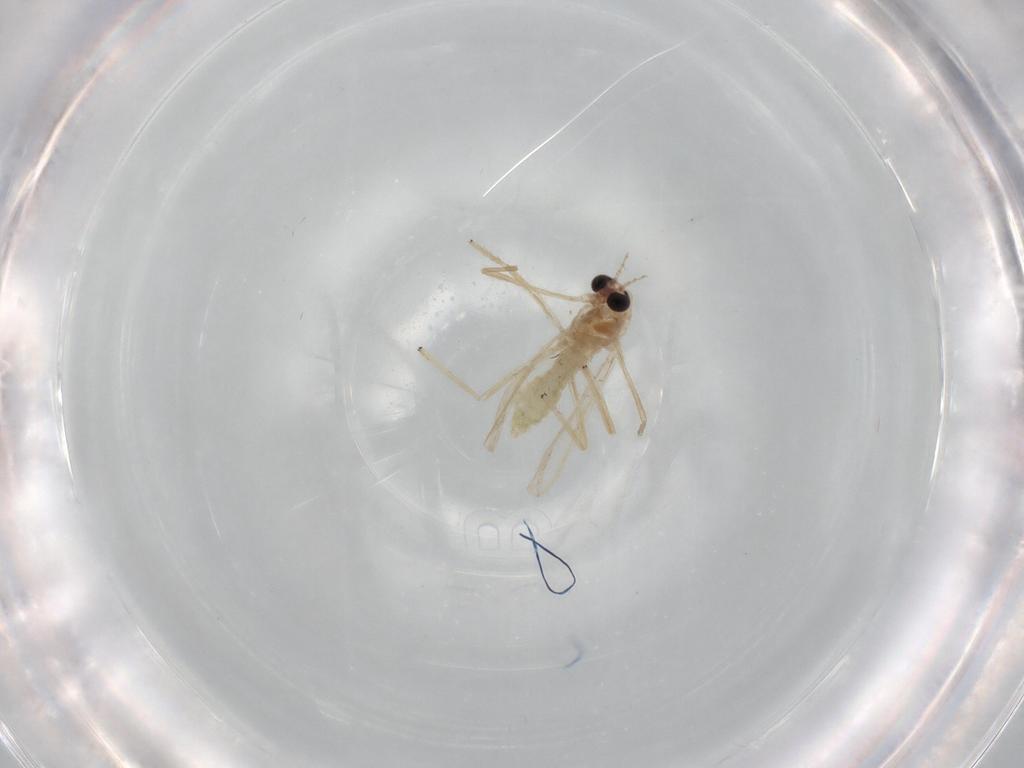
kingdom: Animalia
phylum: Arthropoda
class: Insecta
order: Diptera
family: Chironomidae
